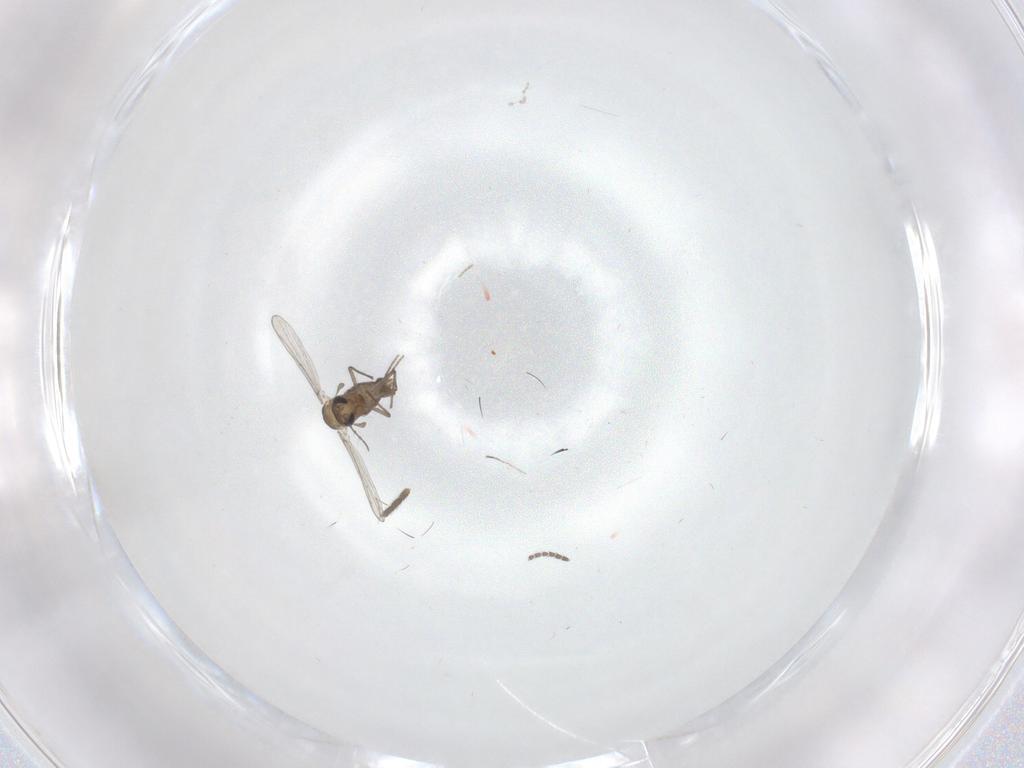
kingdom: Animalia
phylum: Arthropoda
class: Insecta
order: Diptera
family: Chironomidae
